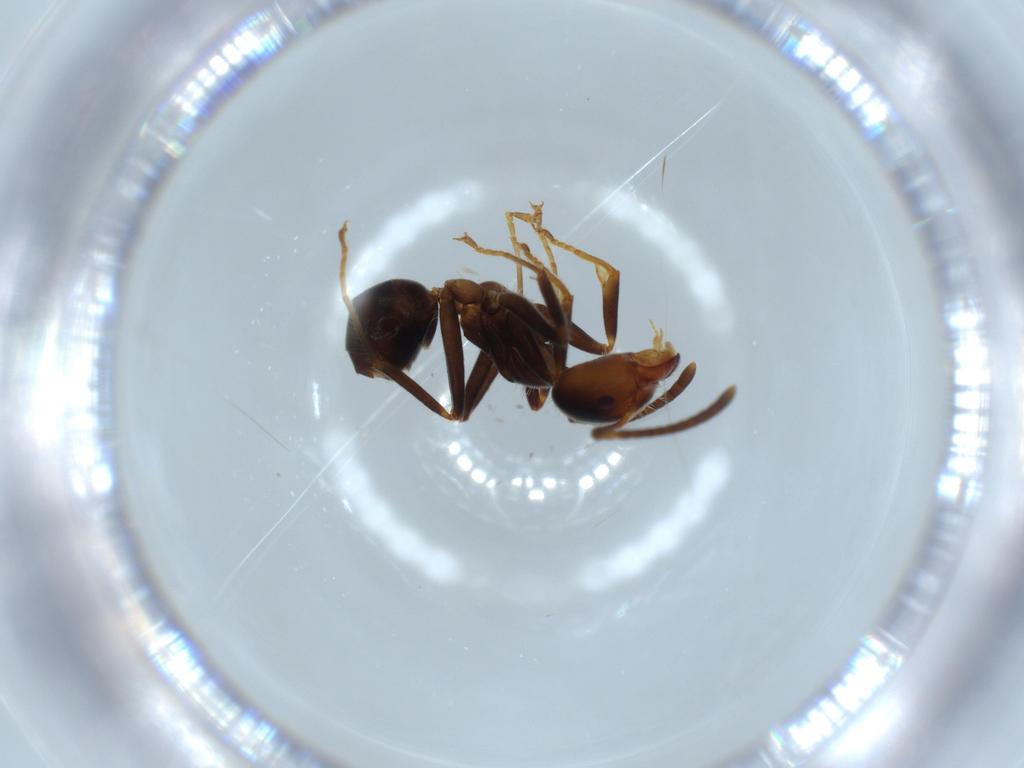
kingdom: Animalia
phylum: Arthropoda
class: Insecta
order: Hymenoptera
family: Formicidae
